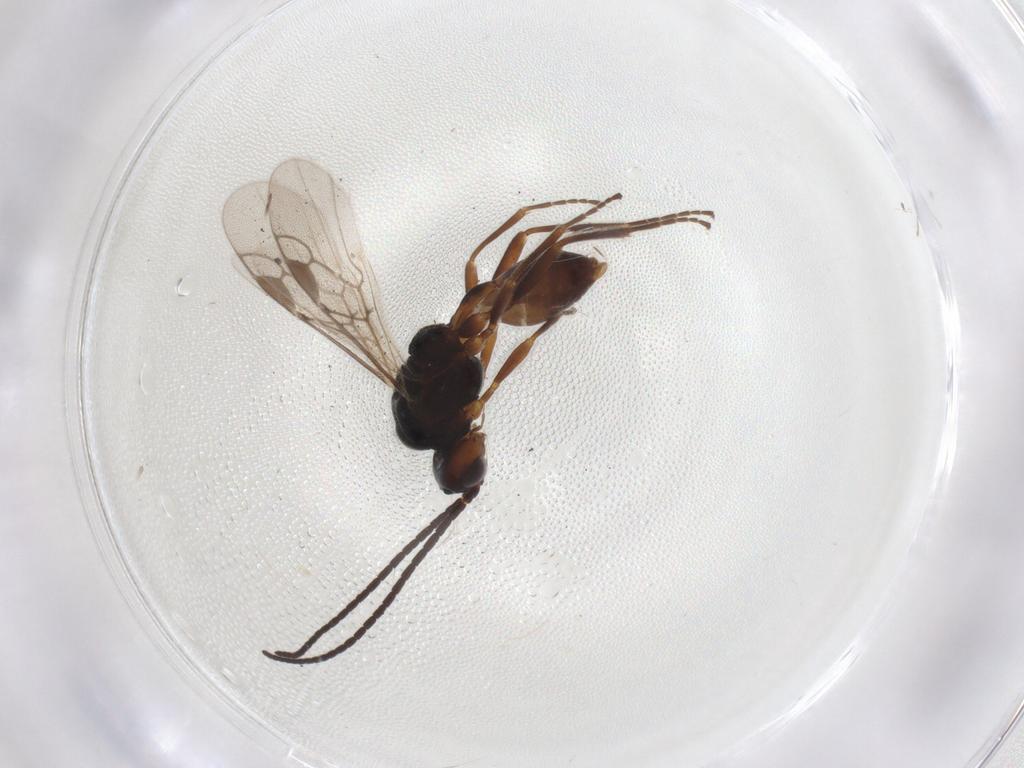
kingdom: Animalia
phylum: Arthropoda
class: Insecta
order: Hymenoptera
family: Braconidae
